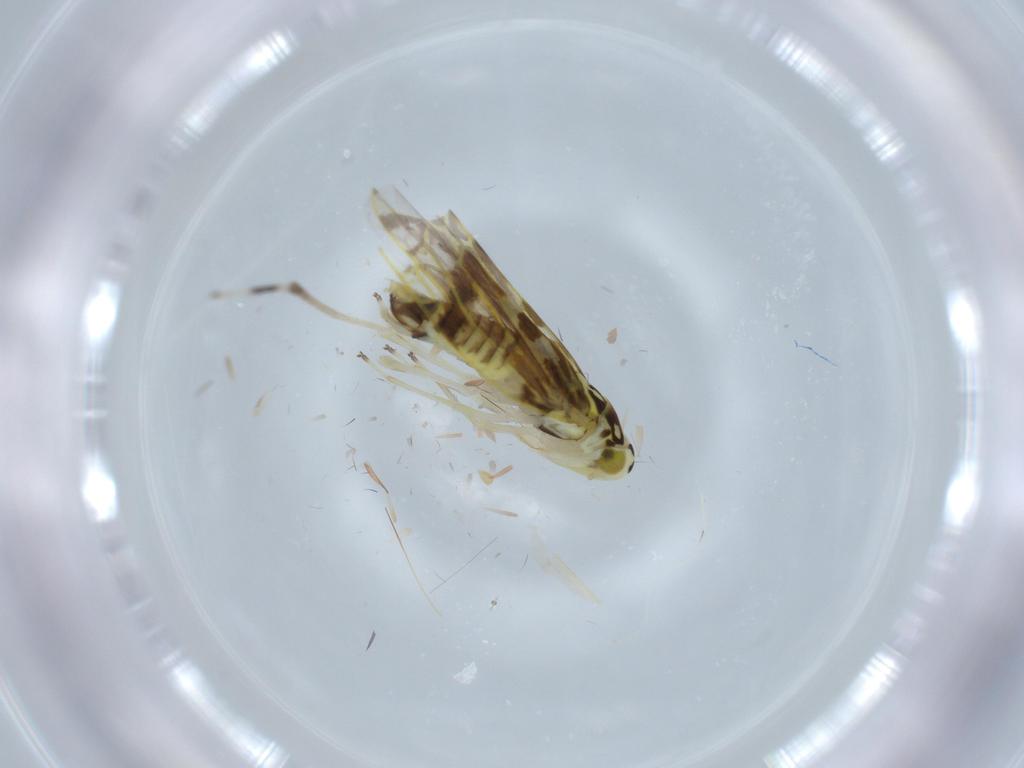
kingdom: Animalia
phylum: Arthropoda
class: Insecta
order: Hemiptera
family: Cicadellidae
